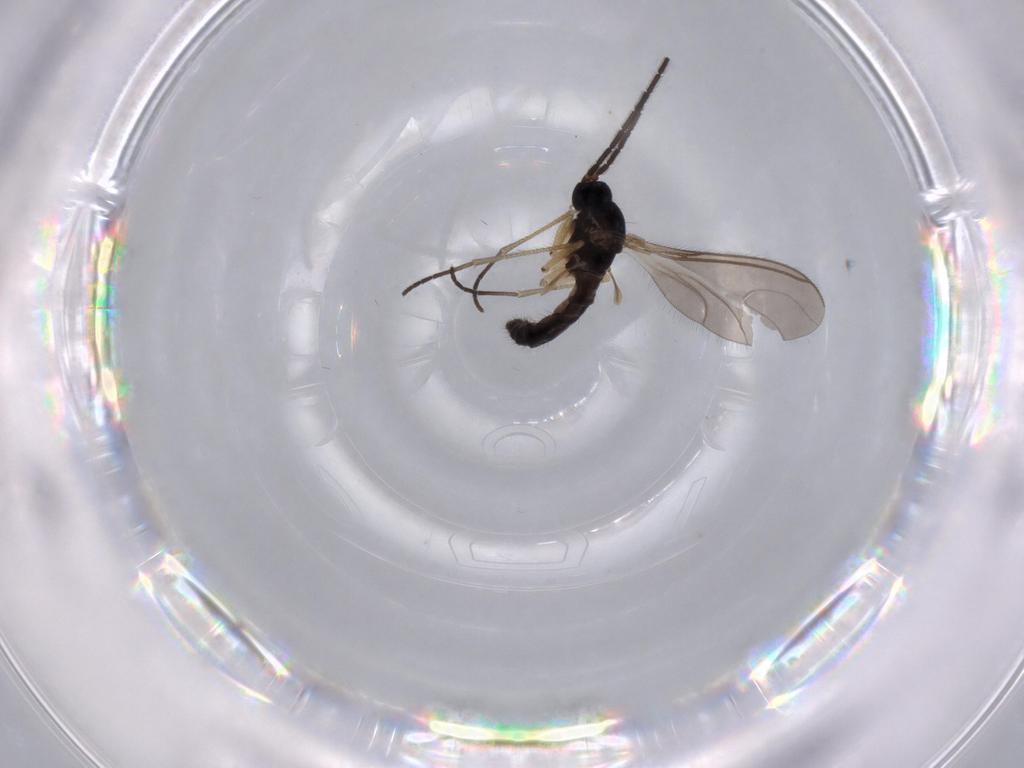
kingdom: Animalia
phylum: Arthropoda
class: Insecta
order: Diptera
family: Sciaridae
